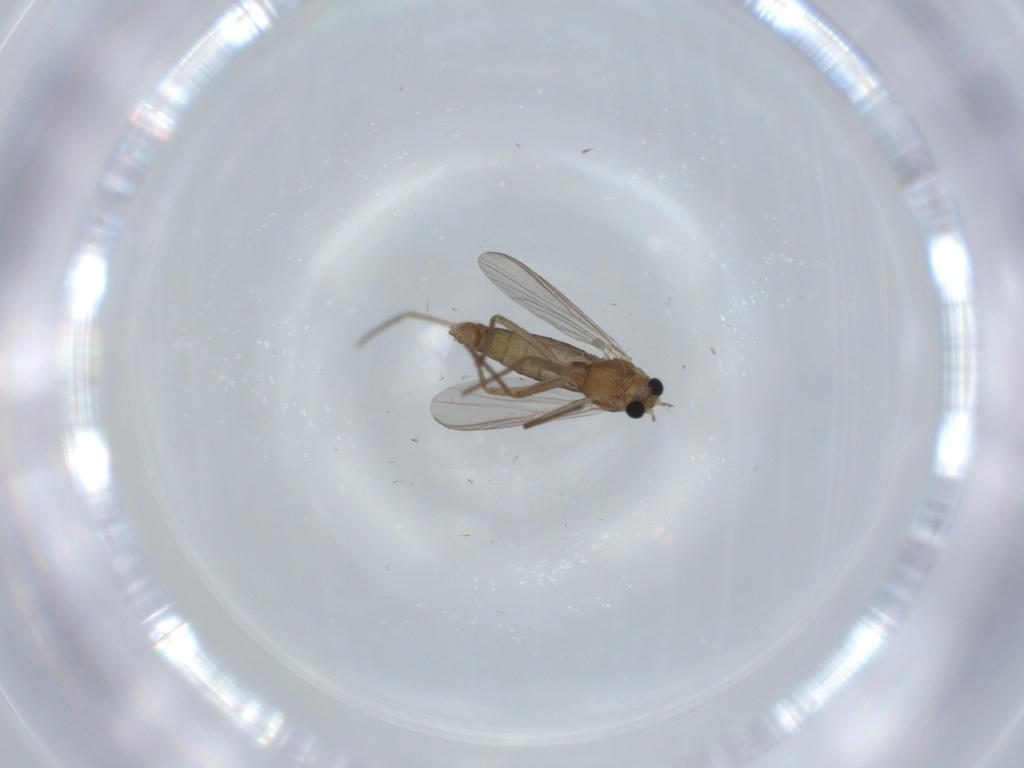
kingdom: Animalia
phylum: Arthropoda
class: Insecta
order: Diptera
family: Chironomidae
